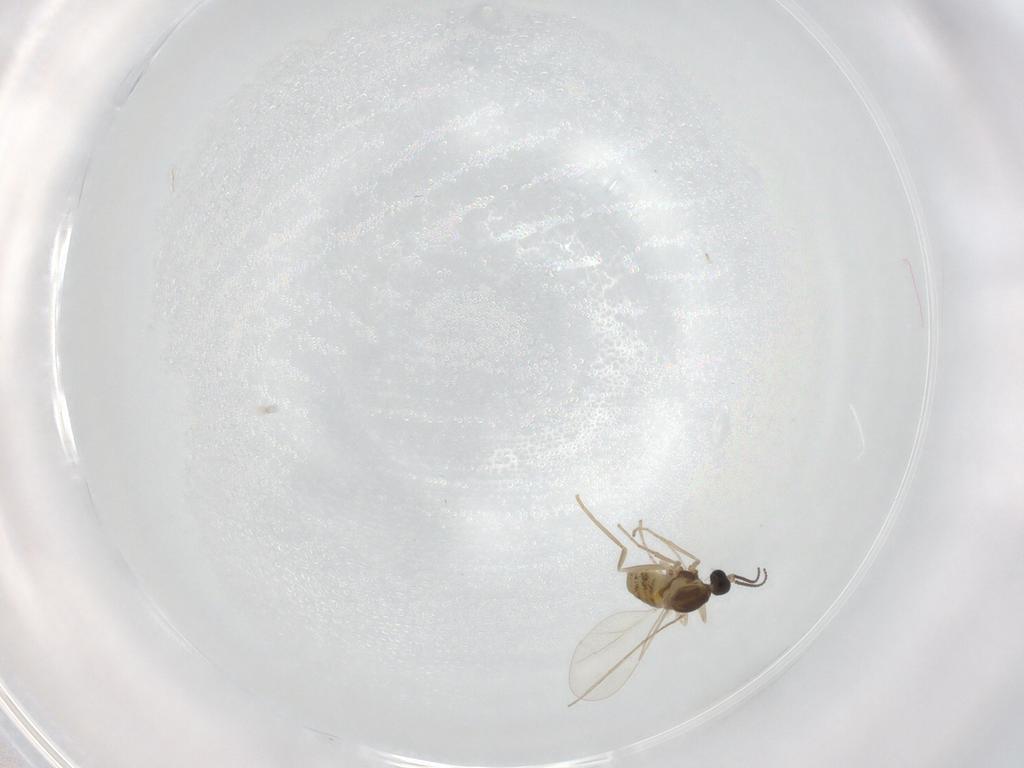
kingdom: Animalia
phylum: Arthropoda
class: Insecta
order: Diptera
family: Cecidomyiidae
